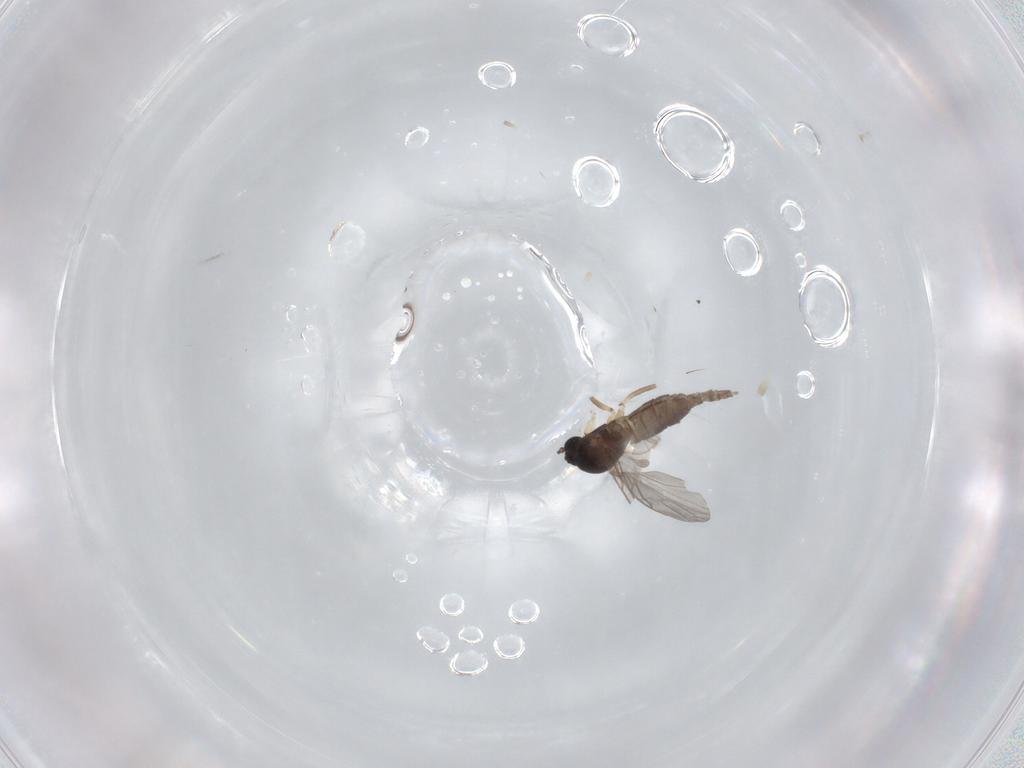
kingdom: Animalia
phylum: Arthropoda
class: Insecta
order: Diptera
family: Sciaridae
